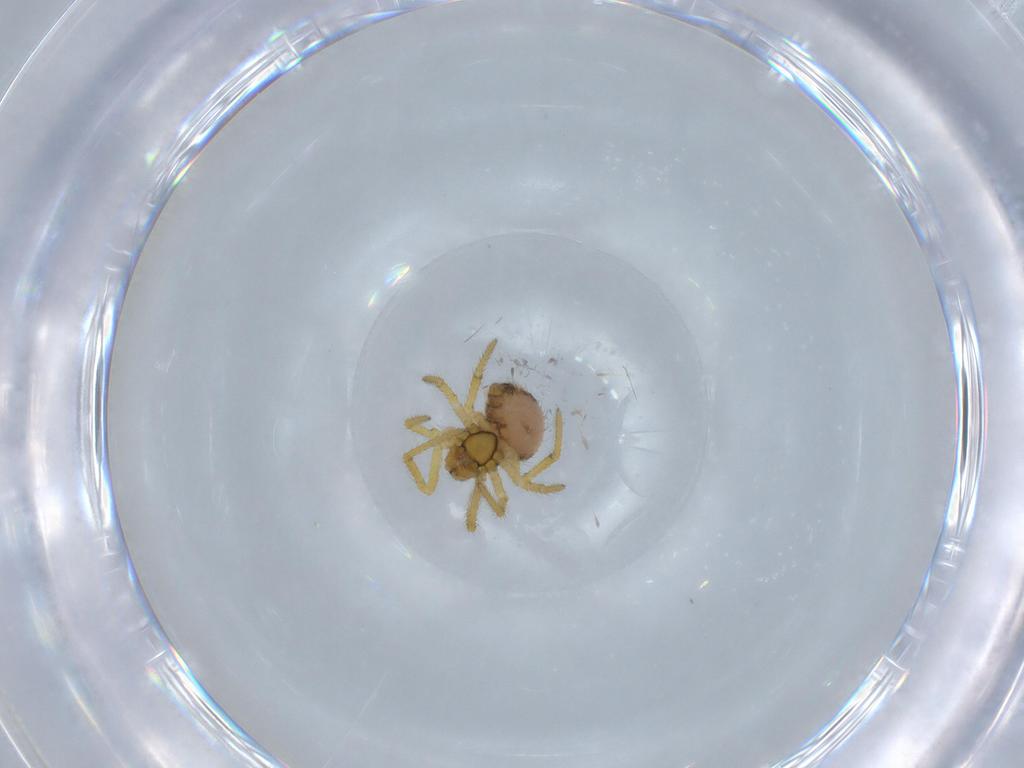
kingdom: Animalia
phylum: Arthropoda
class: Arachnida
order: Araneae
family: Theridiidae
